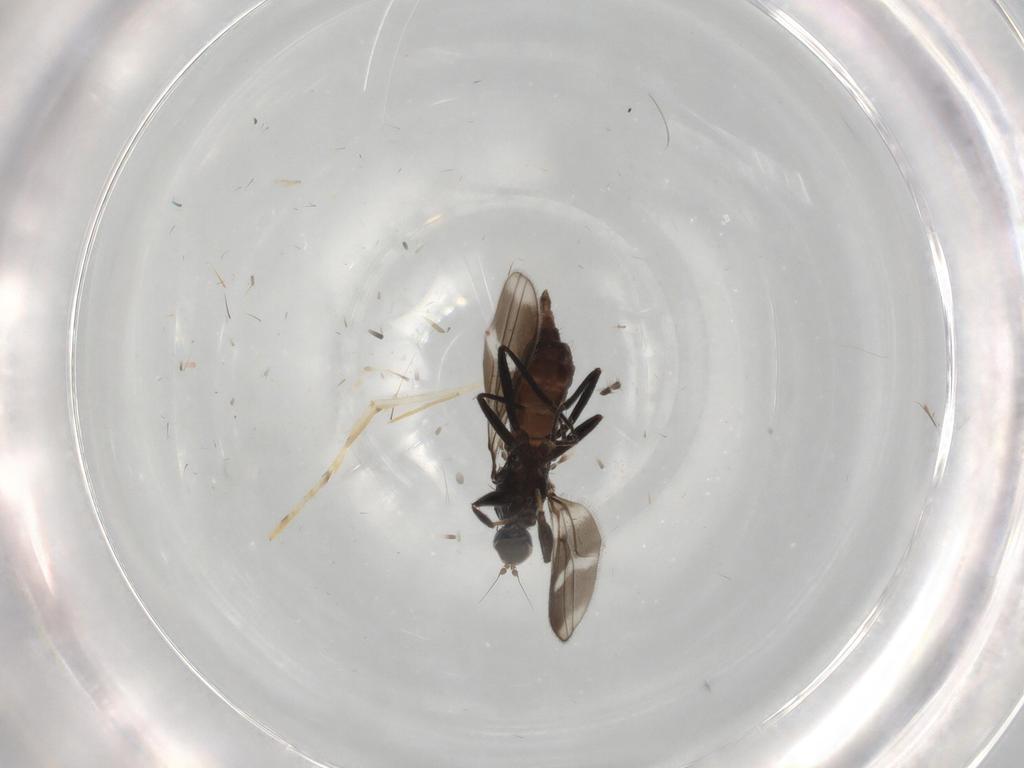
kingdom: Animalia
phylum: Arthropoda
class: Insecta
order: Diptera
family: Hybotidae
